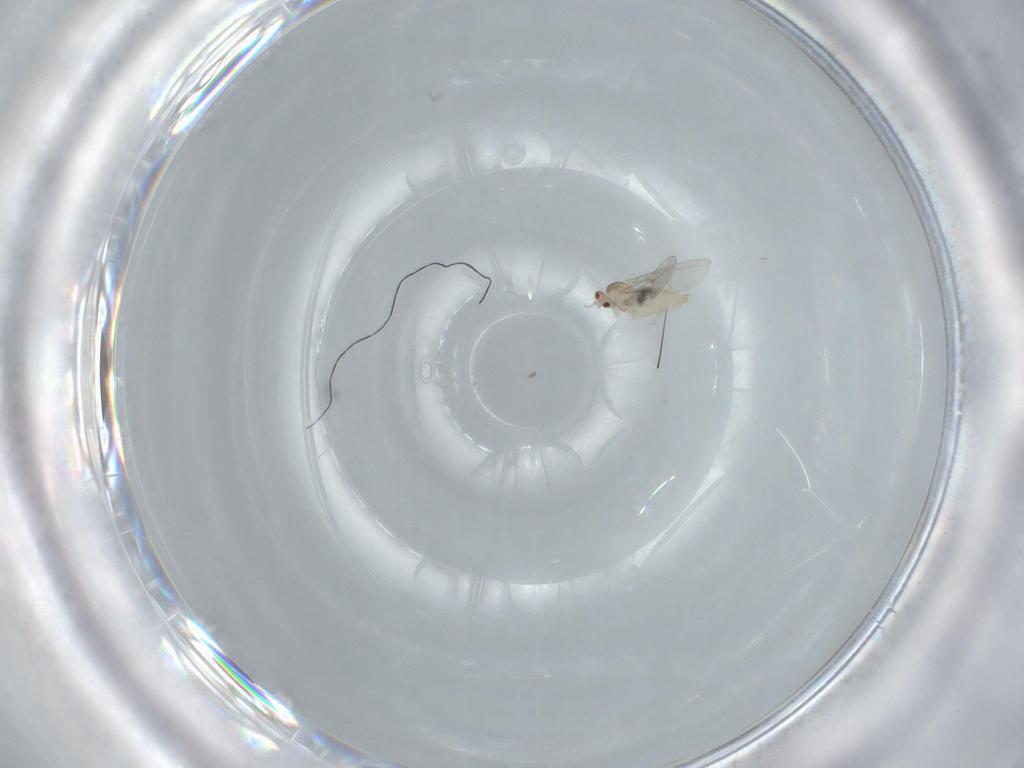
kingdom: Animalia
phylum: Arthropoda
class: Insecta
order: Diptera
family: Cecidomyiidae
